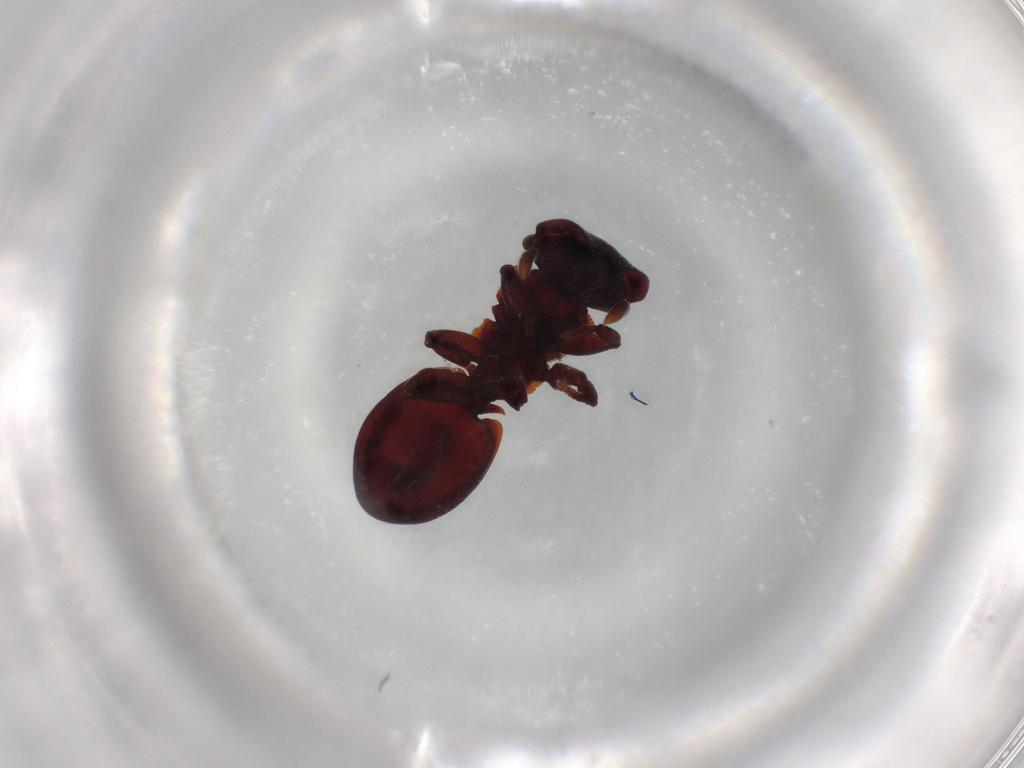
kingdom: Animalia
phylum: Arthropoda
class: Insecta
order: Hymenoptera
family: Formicidae
